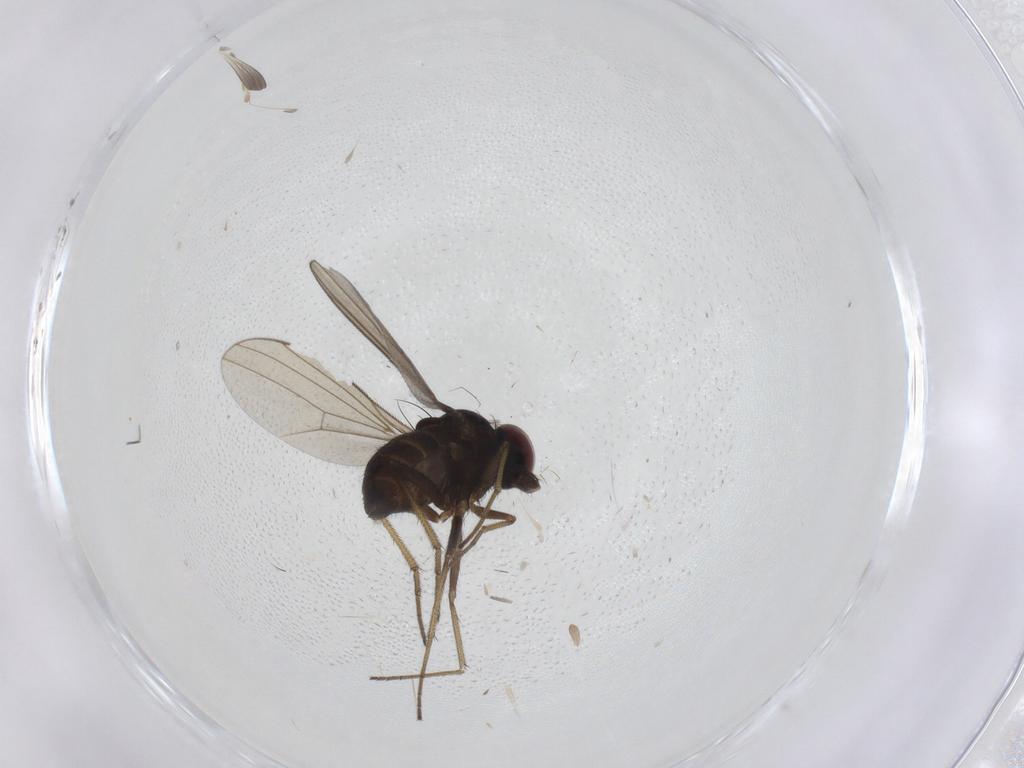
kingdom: Animalia
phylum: Arthropoda
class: Insecta
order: Diptera
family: Dolichopodidae
